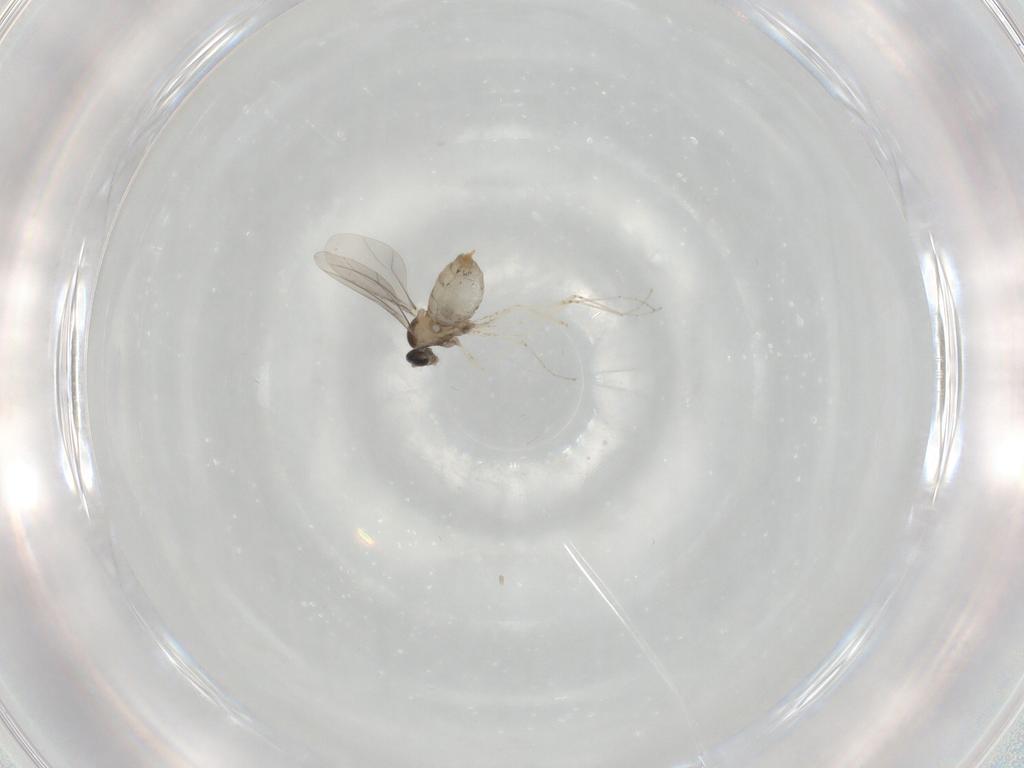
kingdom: Animalia
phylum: Arthropoda
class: Insecta
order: Diptera
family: Cecidomyiidae
